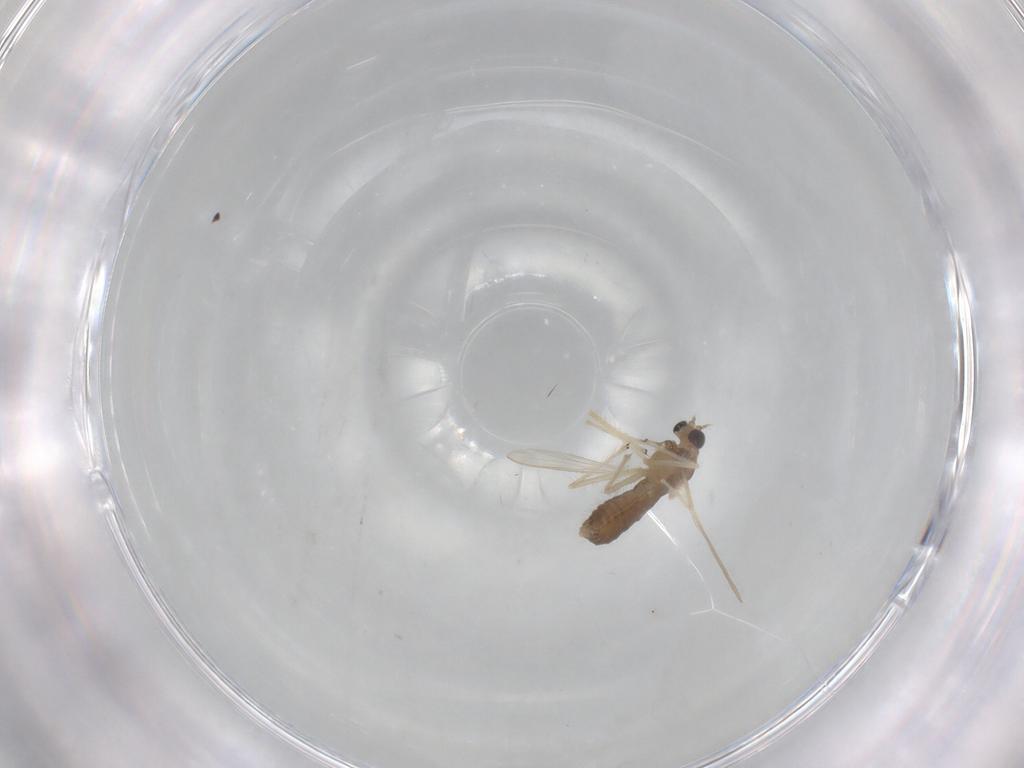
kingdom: Animalia
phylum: Arthropoda
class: Insecta
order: Diptera
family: Chironomidae
